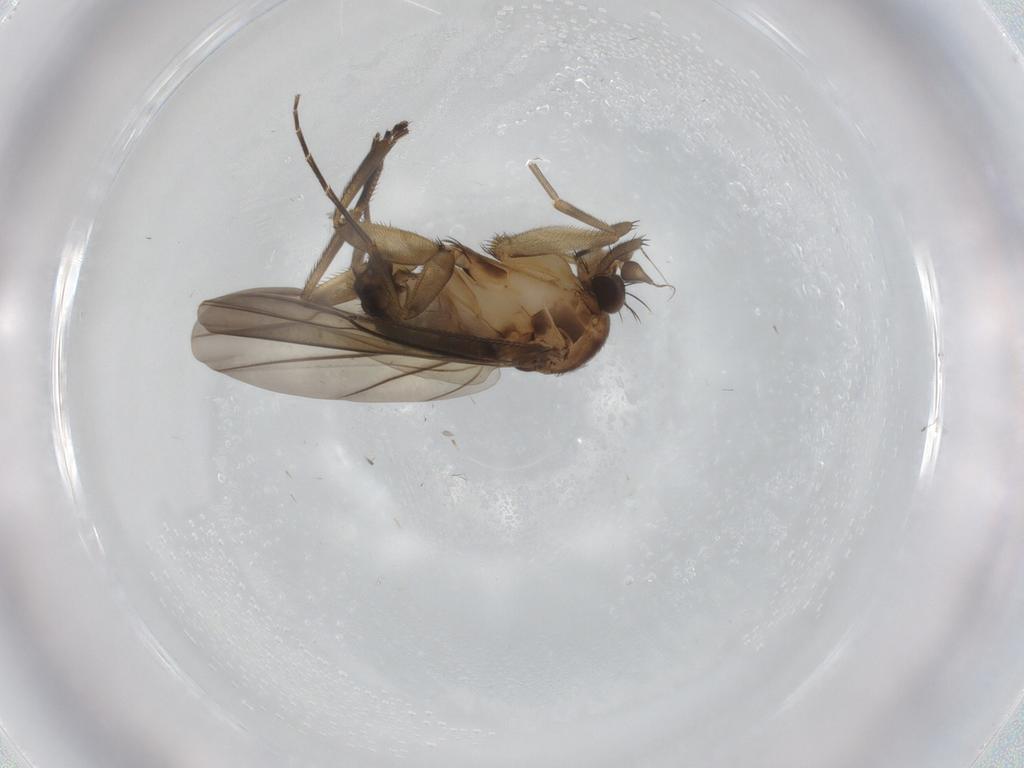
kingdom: Animalia
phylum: Arthropoda
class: Insecta
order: Diptera
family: Phoridae
